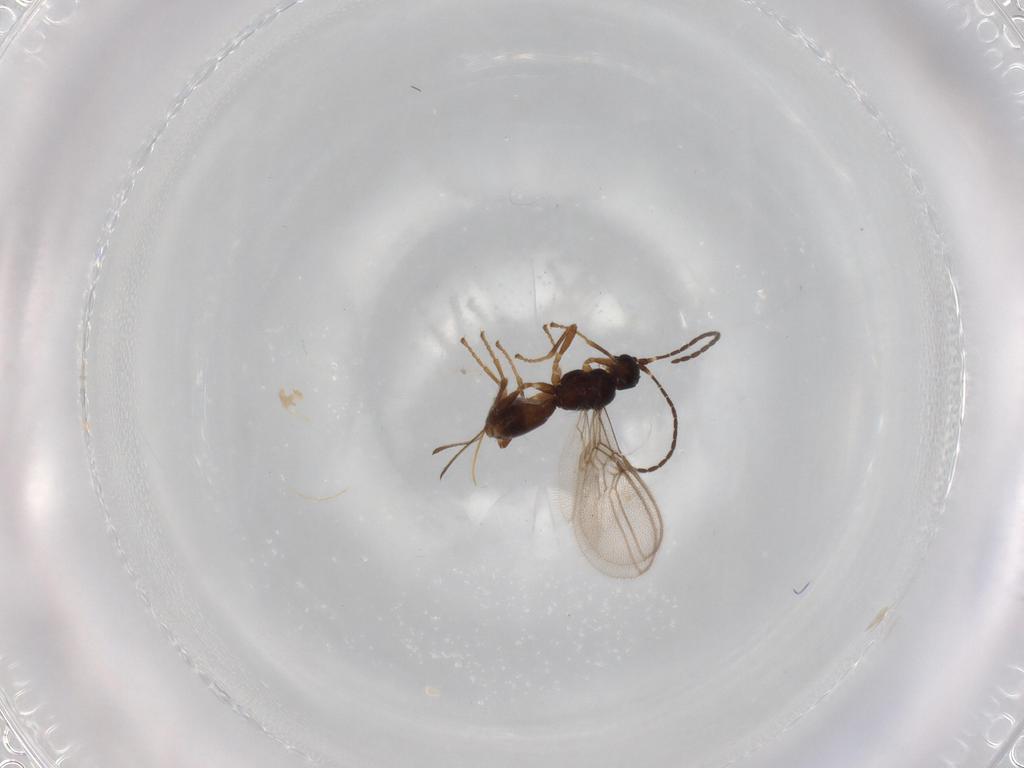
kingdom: Animalia
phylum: Arthropoda
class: Insecta
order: Hymenoptera
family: Braconidae
